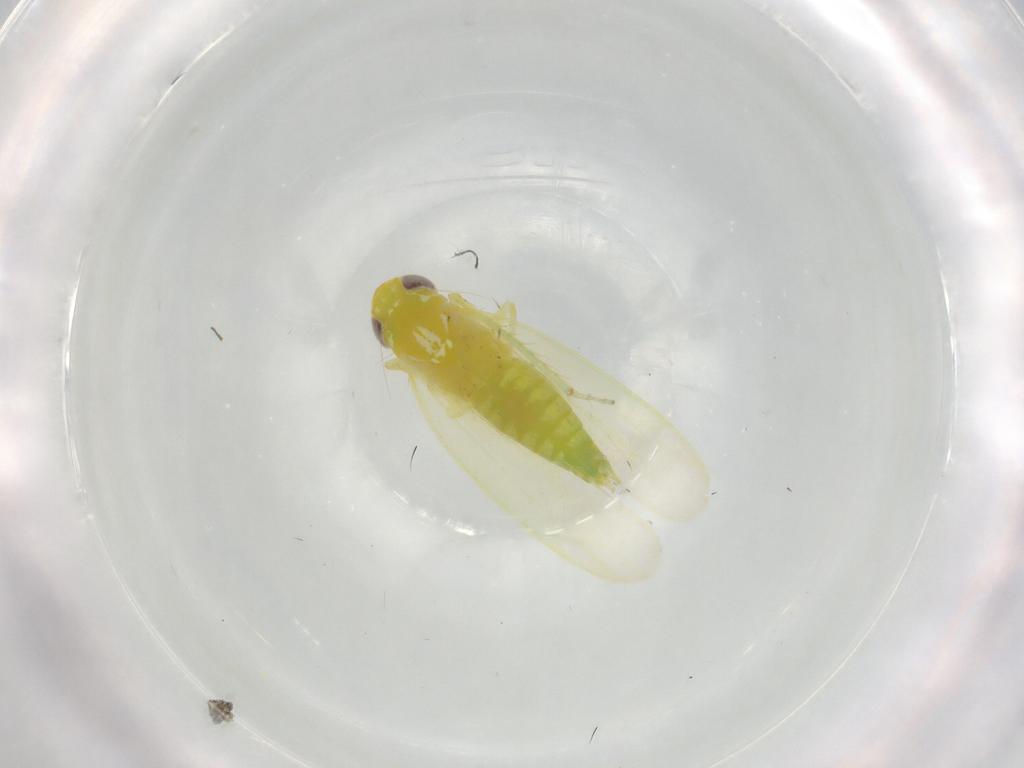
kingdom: Animalia
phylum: Arthropoda
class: Insecta
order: Hemiptera
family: Cicadellidae
